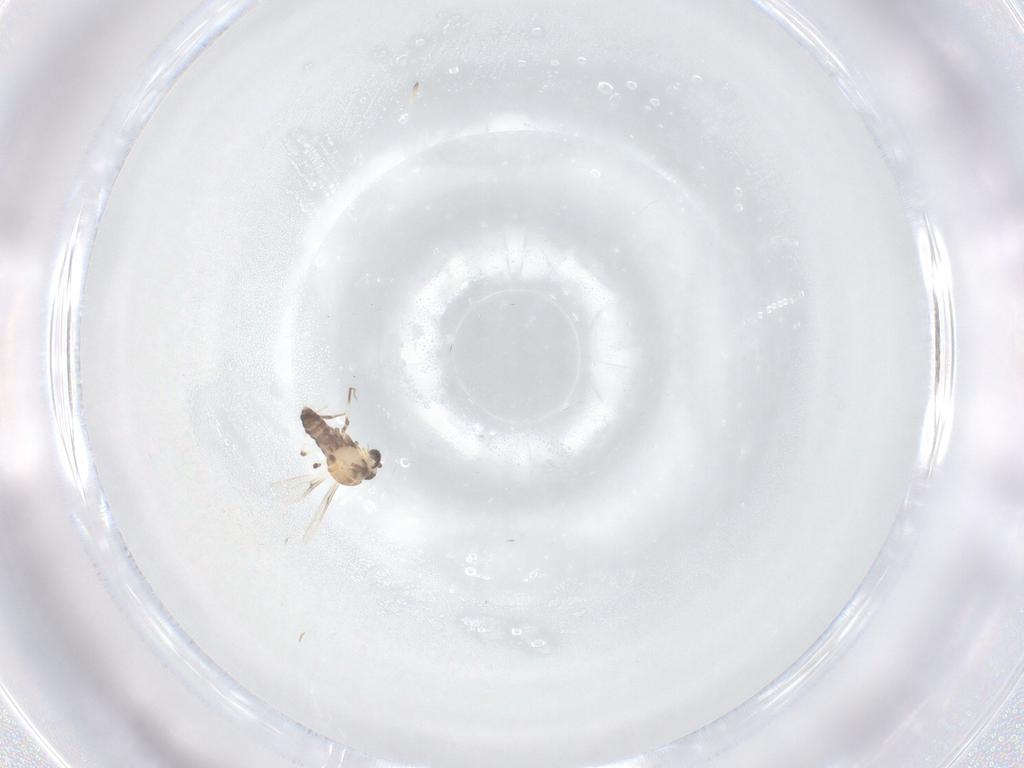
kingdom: Animalia
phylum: Arthropoda
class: Insecta
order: Diptera
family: Ceratopogonidae
